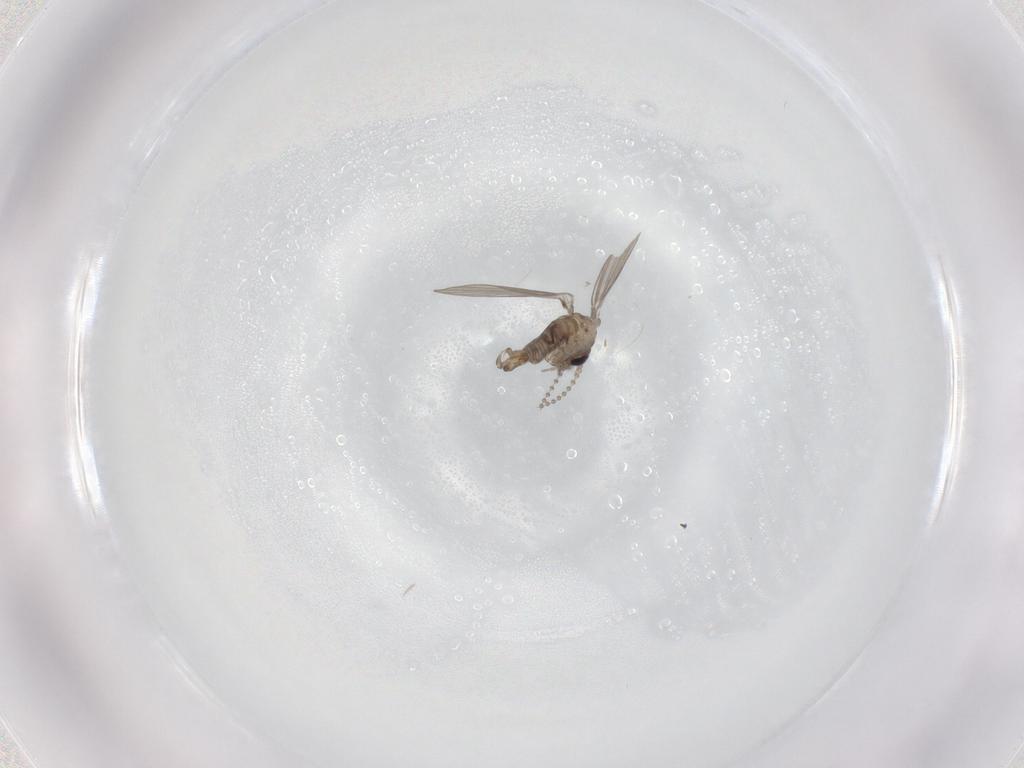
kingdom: Animalia
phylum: Arthropoda
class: Insecta
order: Diptera
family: Psychodidae
